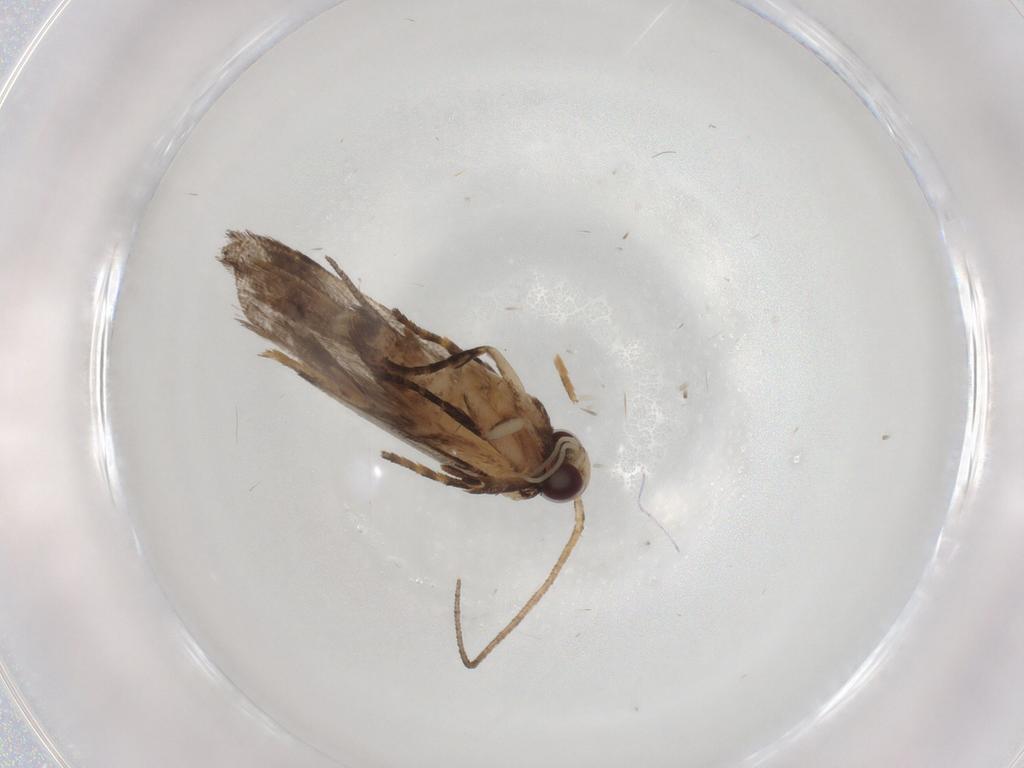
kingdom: Animalia
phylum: Arthropoda
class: Insecta
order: Lepidoptera
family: Gelechiidae
